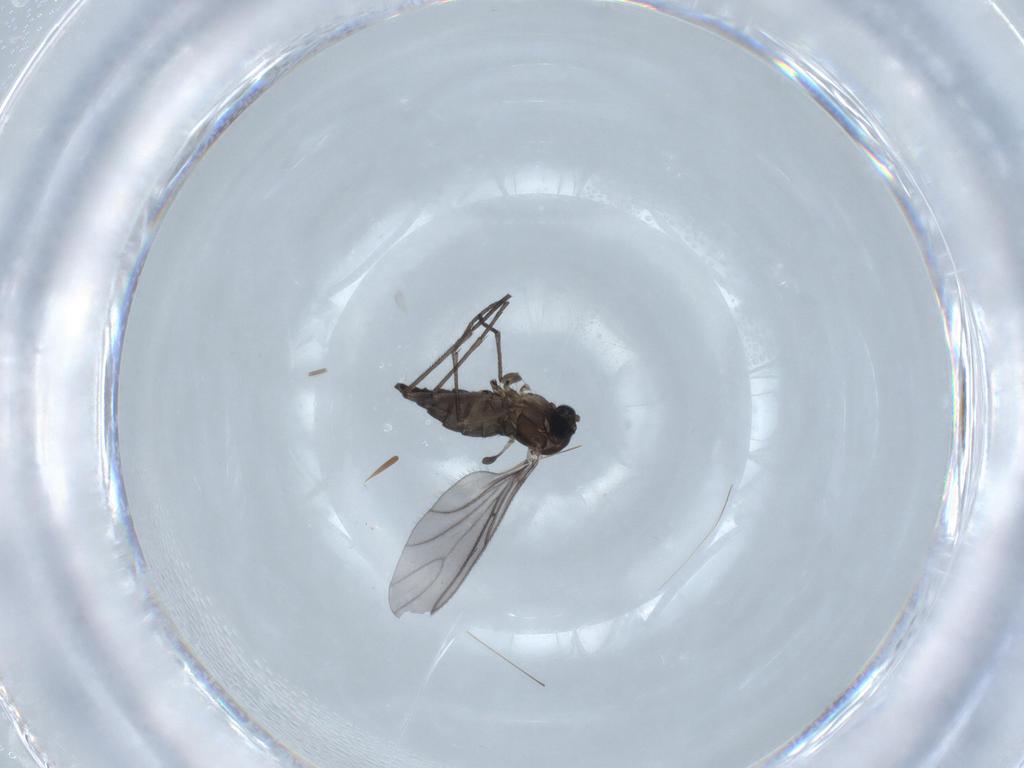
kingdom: Animalia
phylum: Arthropoda
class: Insecta
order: Diptera
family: Sciaridae
